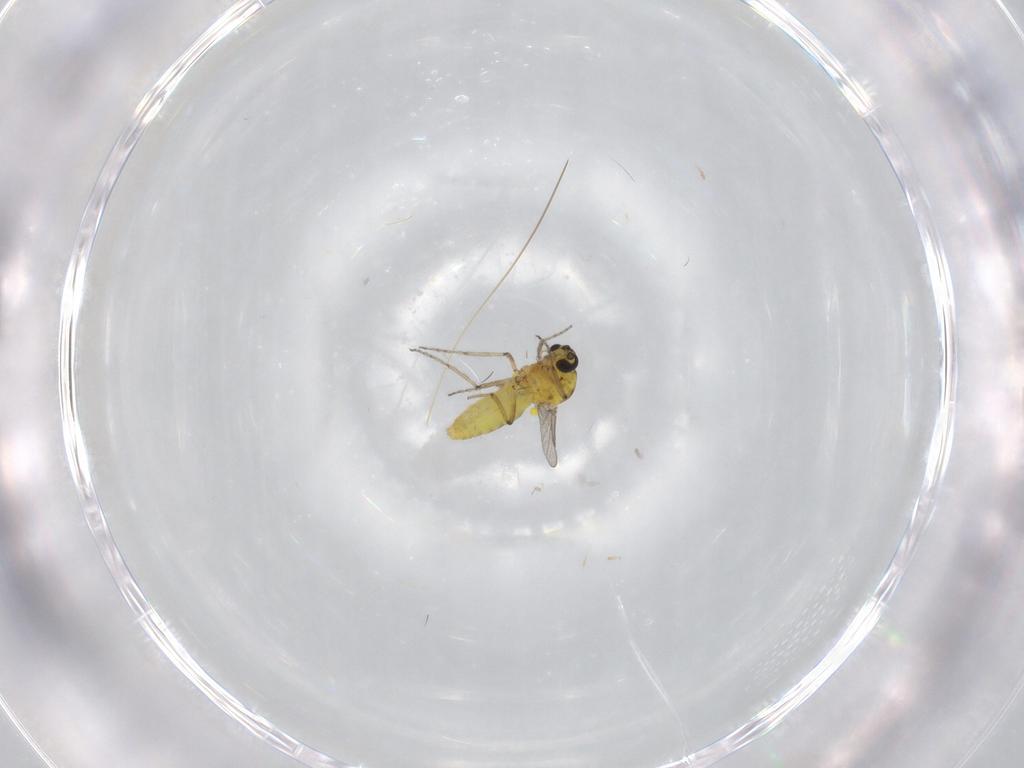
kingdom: Animalia
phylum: Arthropoda
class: Insecta
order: Diptera
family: Ceratopogonidae
